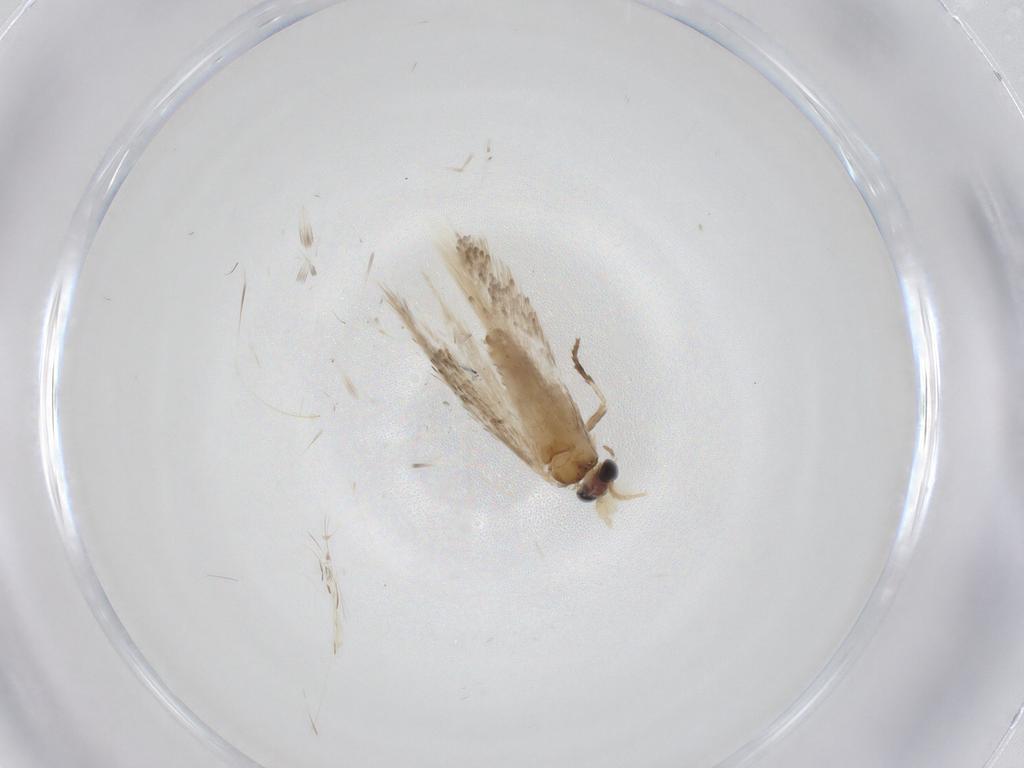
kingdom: Animalia
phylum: Arthropoda
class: Insecta
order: Lepidoptera
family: Nepticulidae
